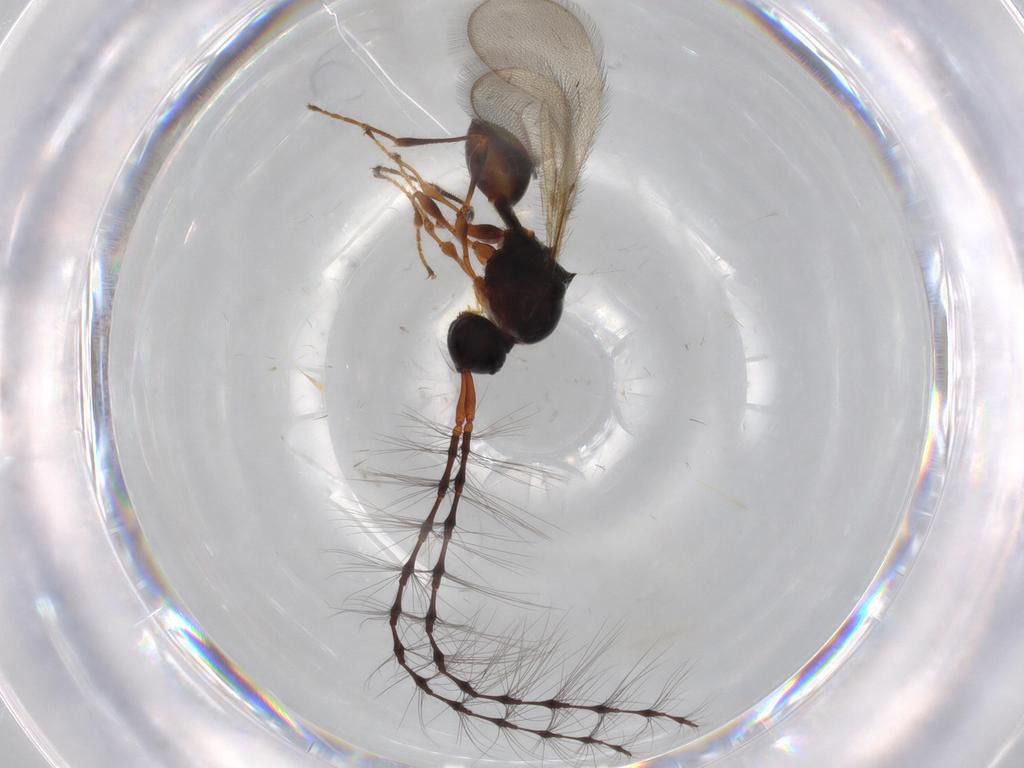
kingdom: Animalia
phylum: Arthropoda
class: Insecta
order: Hymenoptera
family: Diapriidae
